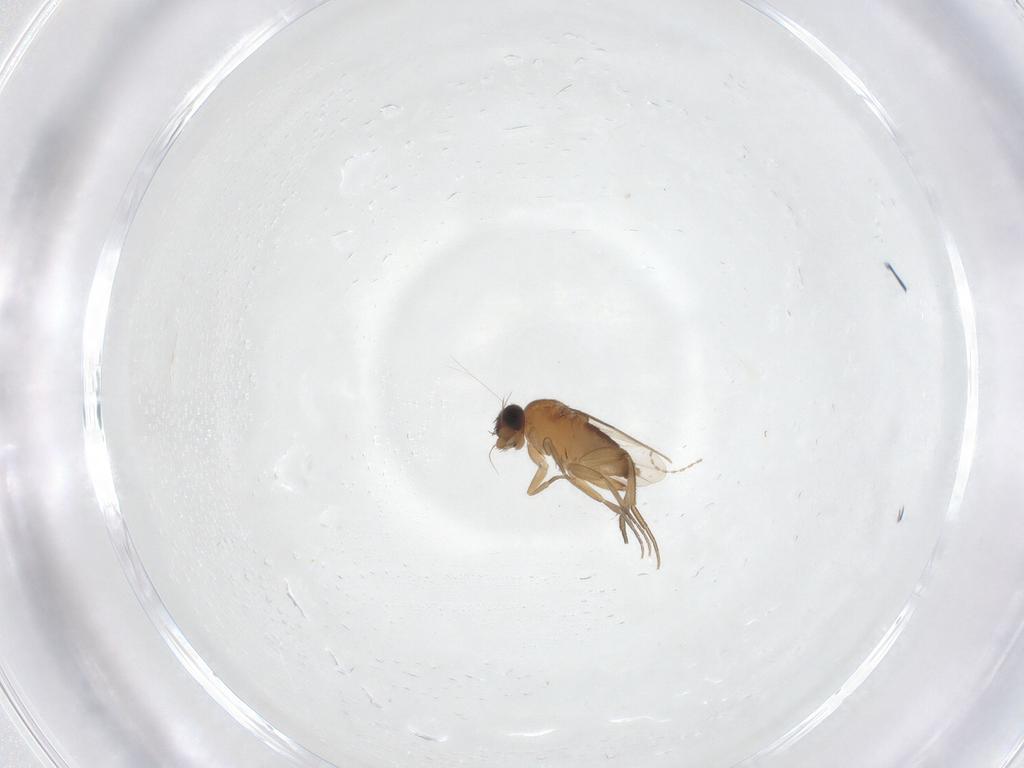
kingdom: Animalia
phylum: Arthropoda
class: Insecta
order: Diptera
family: Phoridae
